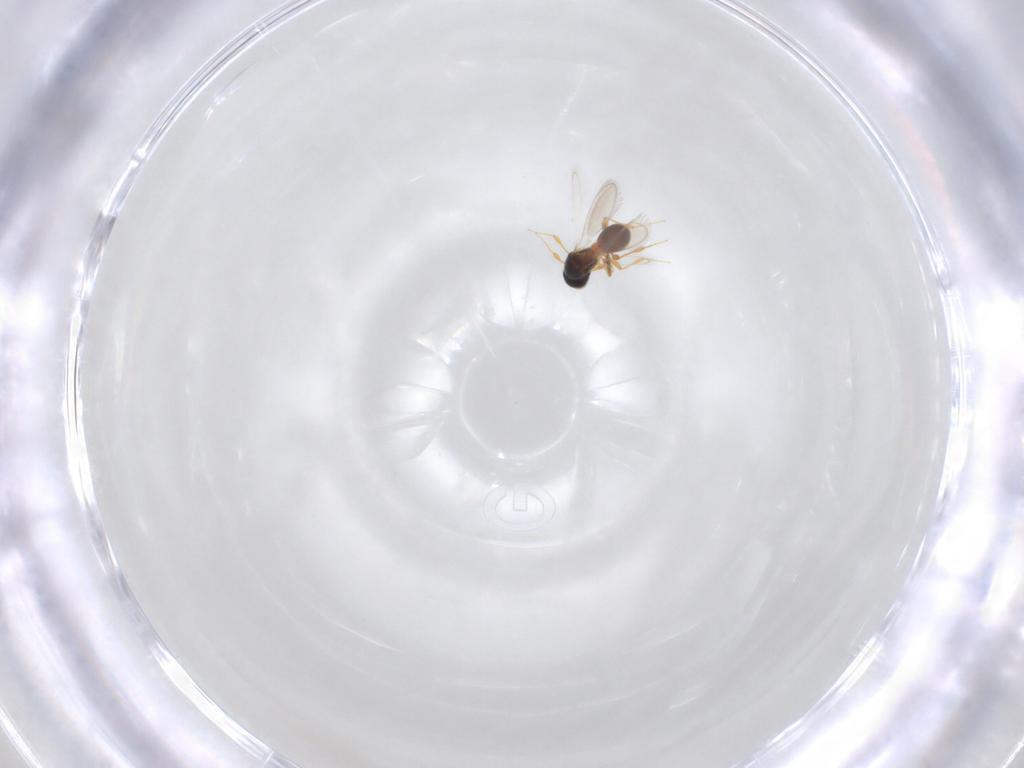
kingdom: Animalia
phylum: Arthropoda
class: Insecta
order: Hymenoptera
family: Platygastridae
